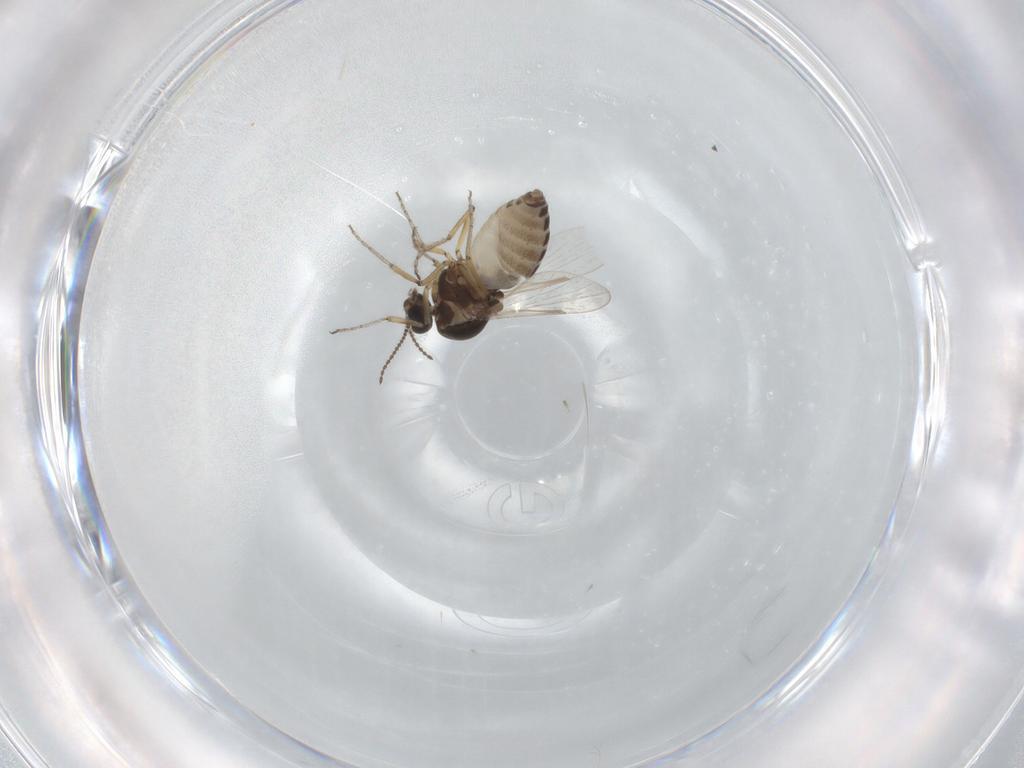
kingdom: Animalia
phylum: Arthropoda
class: Insecta
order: Diptera
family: Ceratopogonidae
